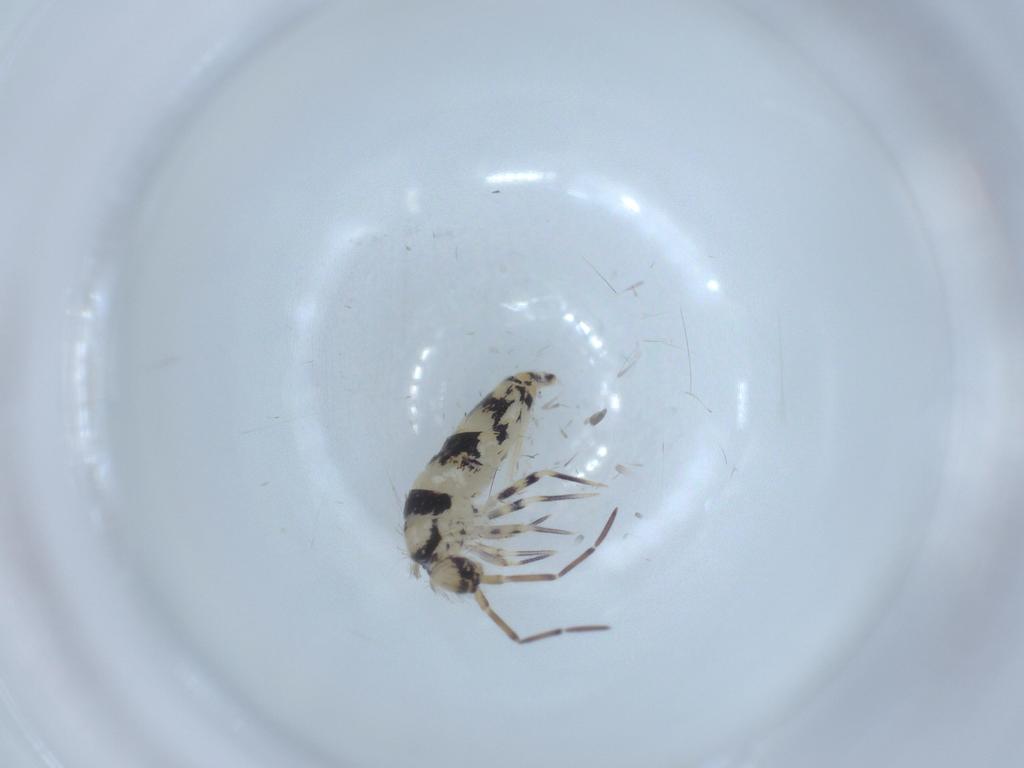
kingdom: Animalia
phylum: Arthropoda
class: Collembola
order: Entomobryomorpha
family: Entomobryidae
